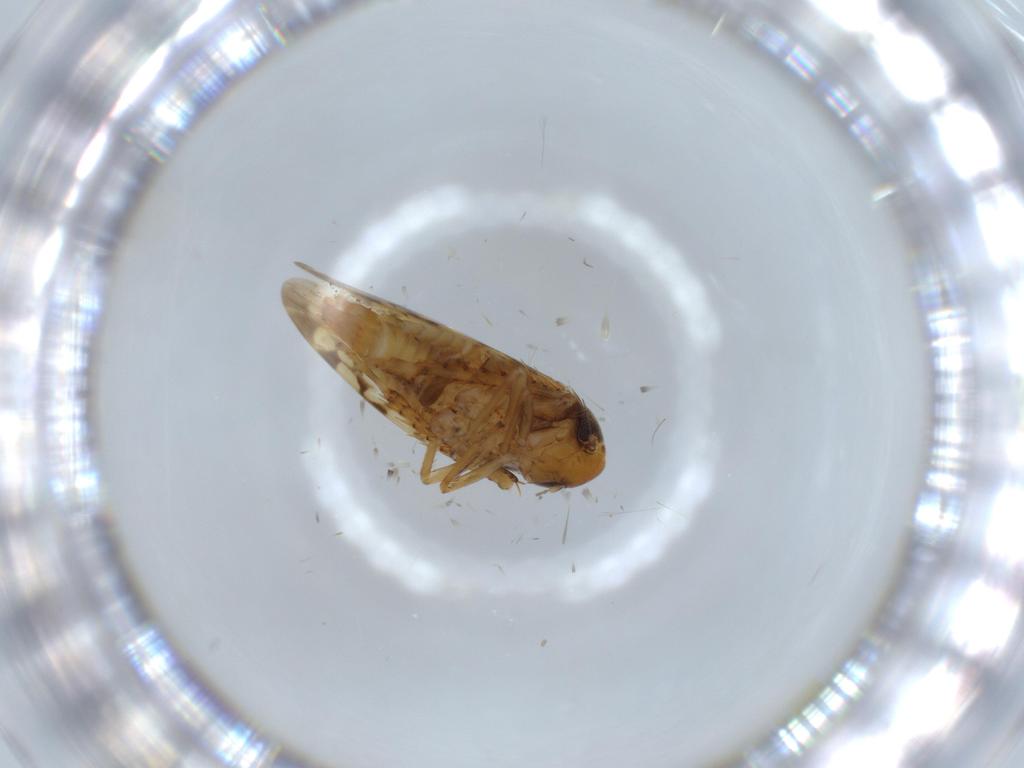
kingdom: Animalia
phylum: Arthropoda
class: Insecta
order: Hemiptera
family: Cicadellidae
